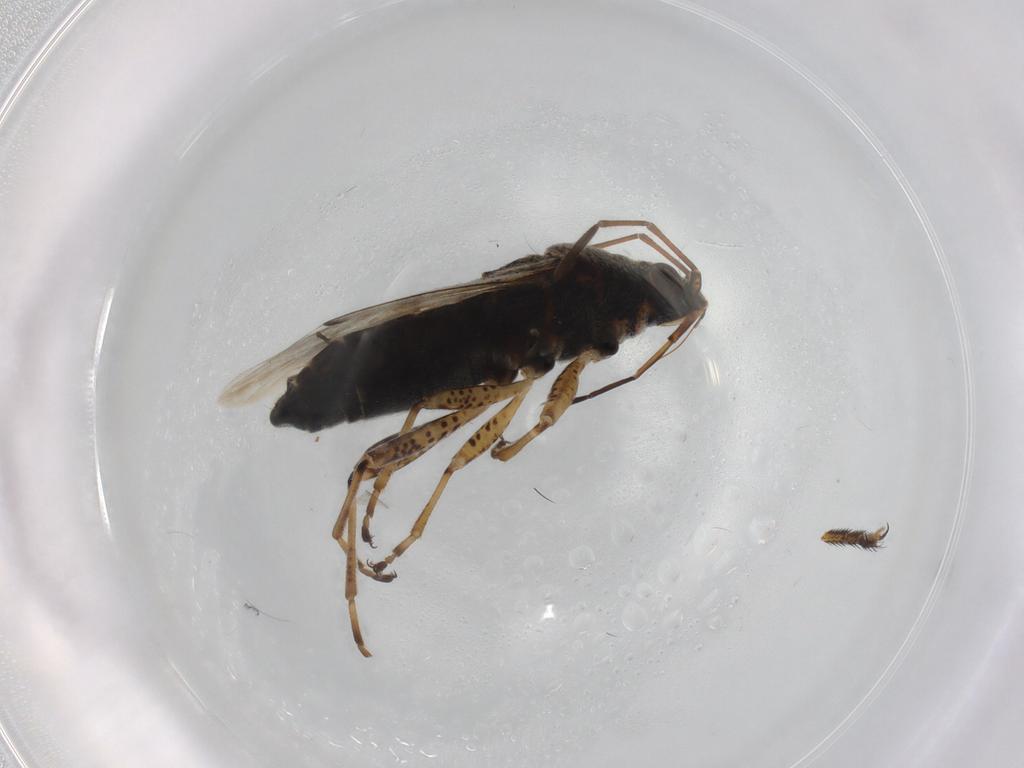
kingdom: Animalia
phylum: Arthropoda
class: Insecta
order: Hemiptera
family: Lygaeidae
